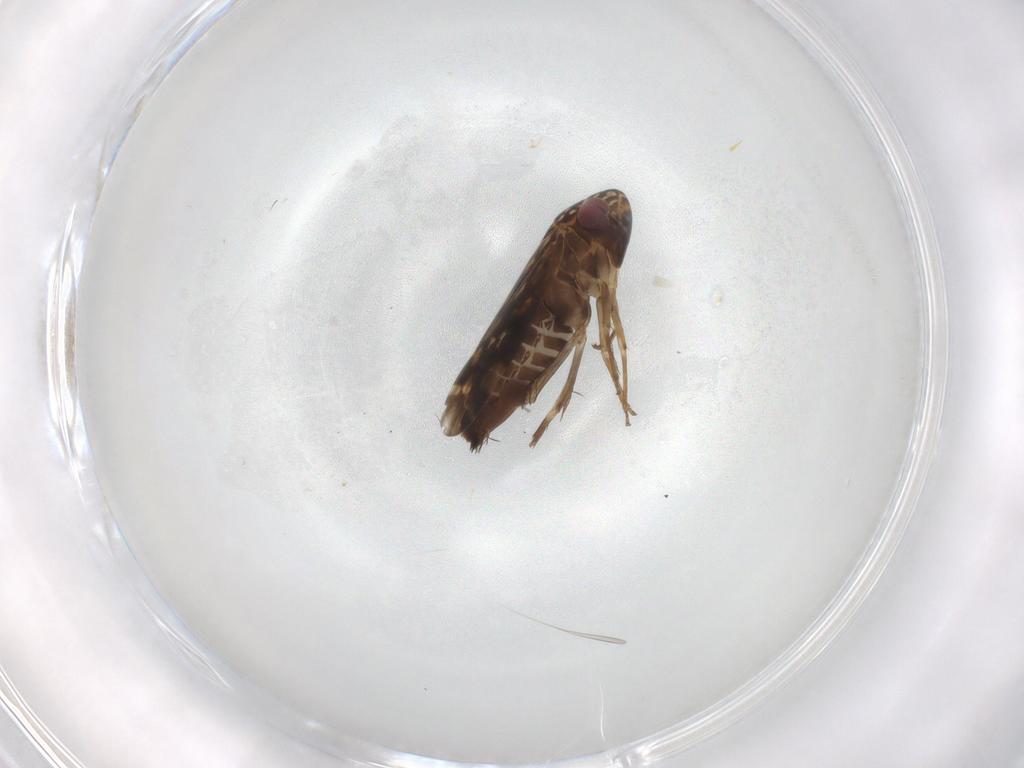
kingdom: Animalia
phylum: Arthropoda
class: Insecta
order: Hemiptera
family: Cicadellidae
